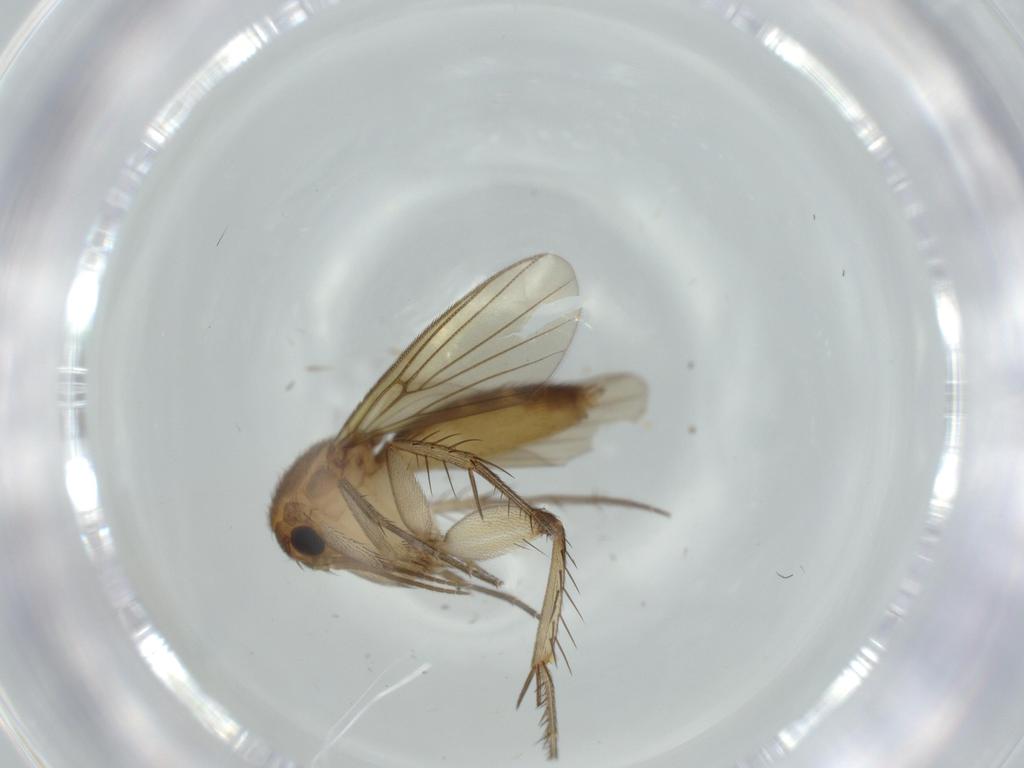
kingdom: Animalia
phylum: Arthropoda
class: Insecta
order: Diptera
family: Mycetophilidae
